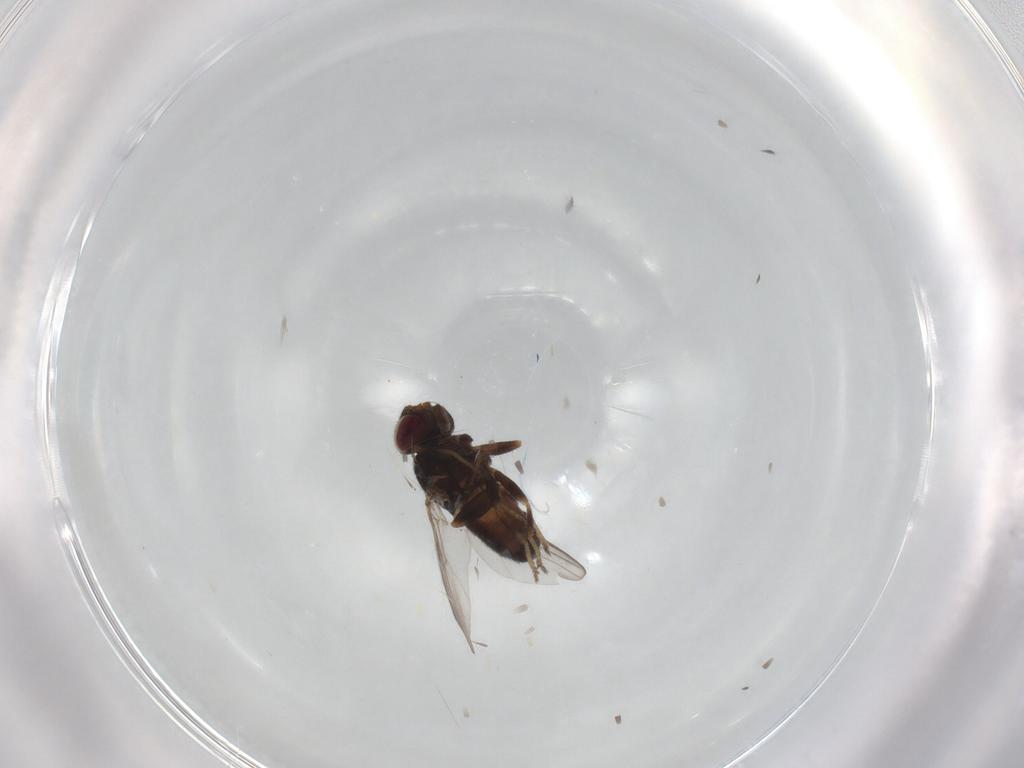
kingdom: Animalia
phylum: Arthropoda
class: Insecta
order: Diptera
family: Chloropidae
